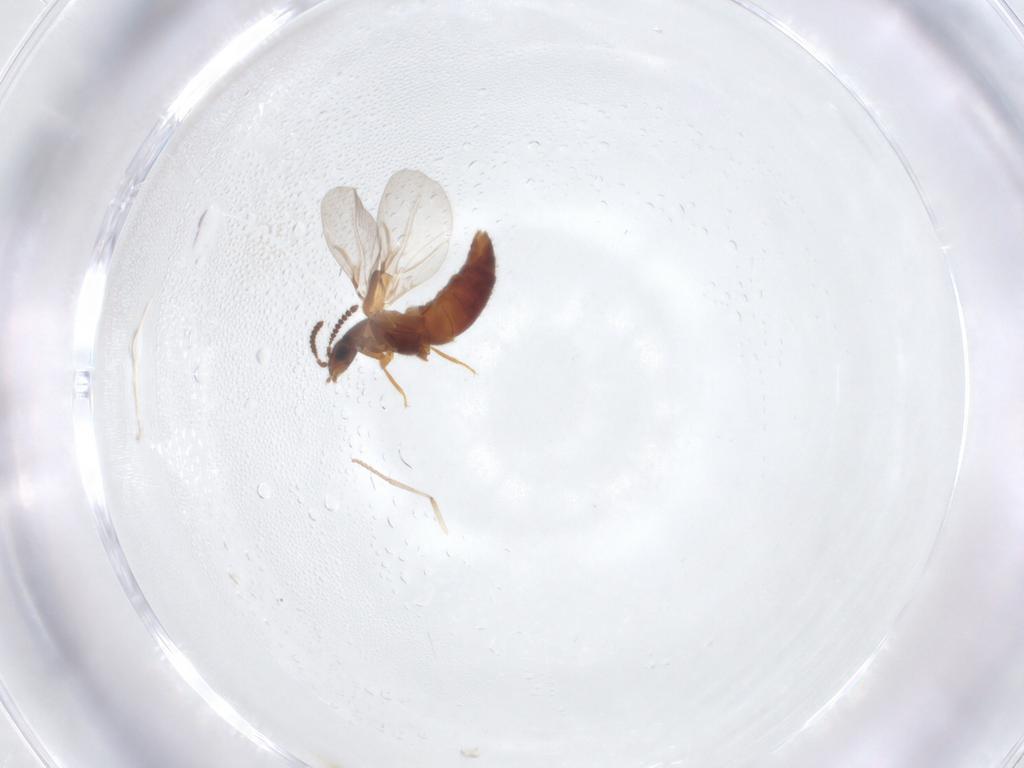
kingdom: Animalia
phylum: Arthropoda
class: Insecta
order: Coleoptera
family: Staphylinidae
